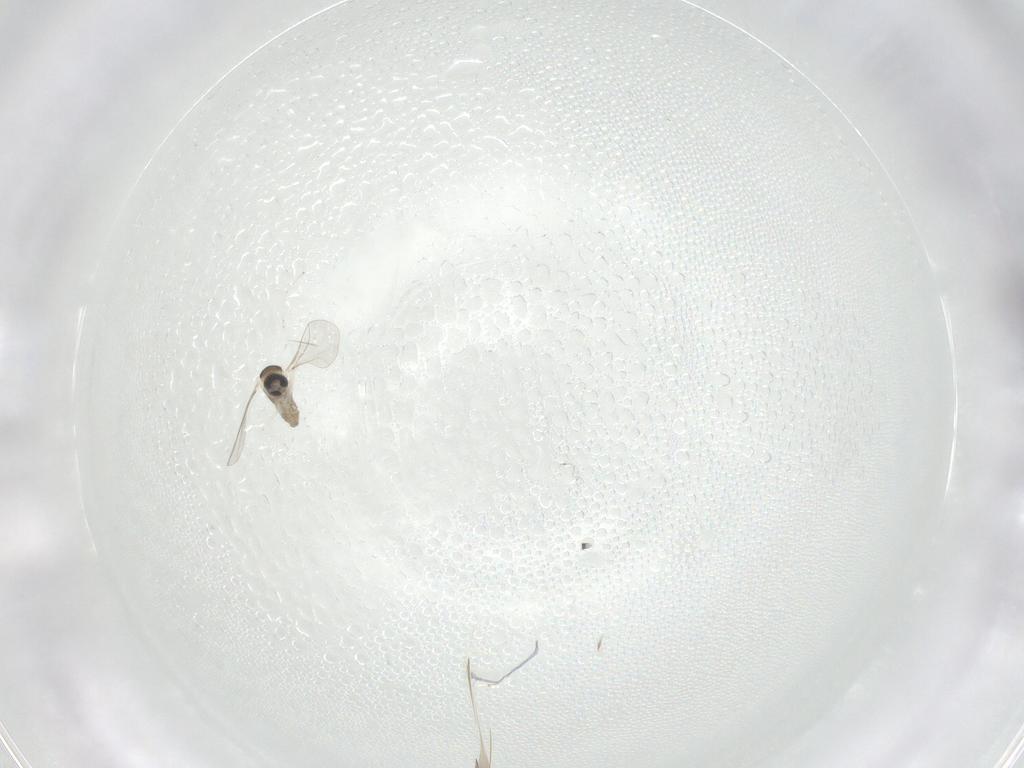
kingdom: Animalia
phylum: Arthropoda
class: Insecta
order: Diptera
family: Cecidomyiidae
